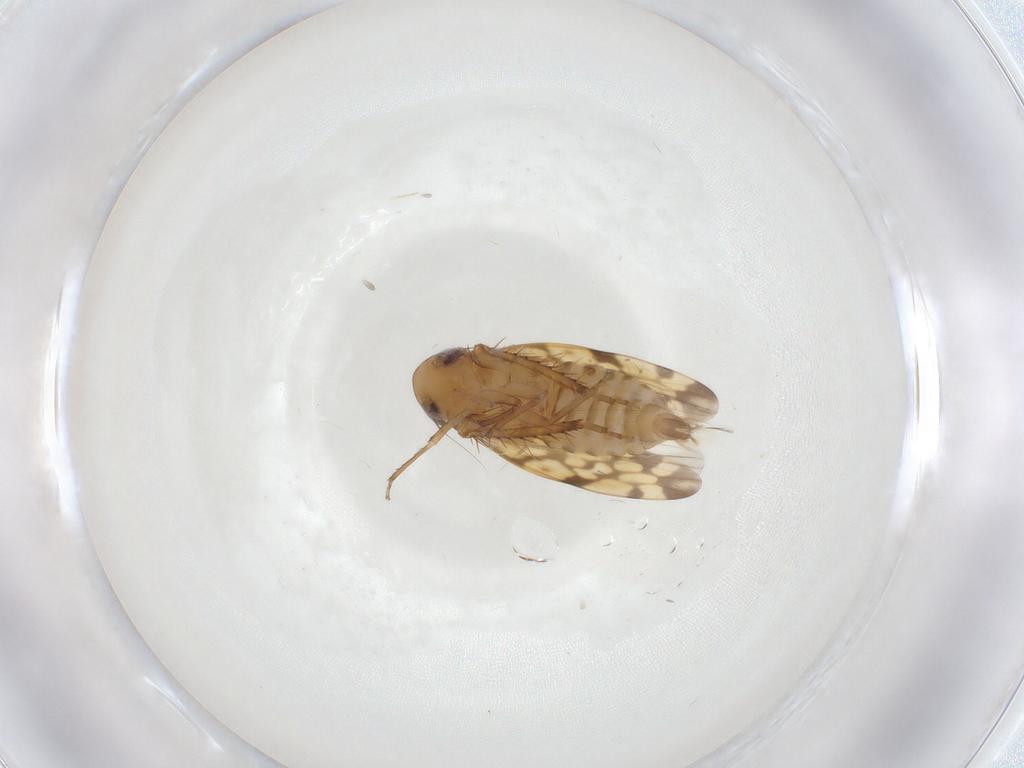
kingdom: Animalia
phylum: Arthropoda
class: Insecta
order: Hemiptera
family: Cicadellidae
